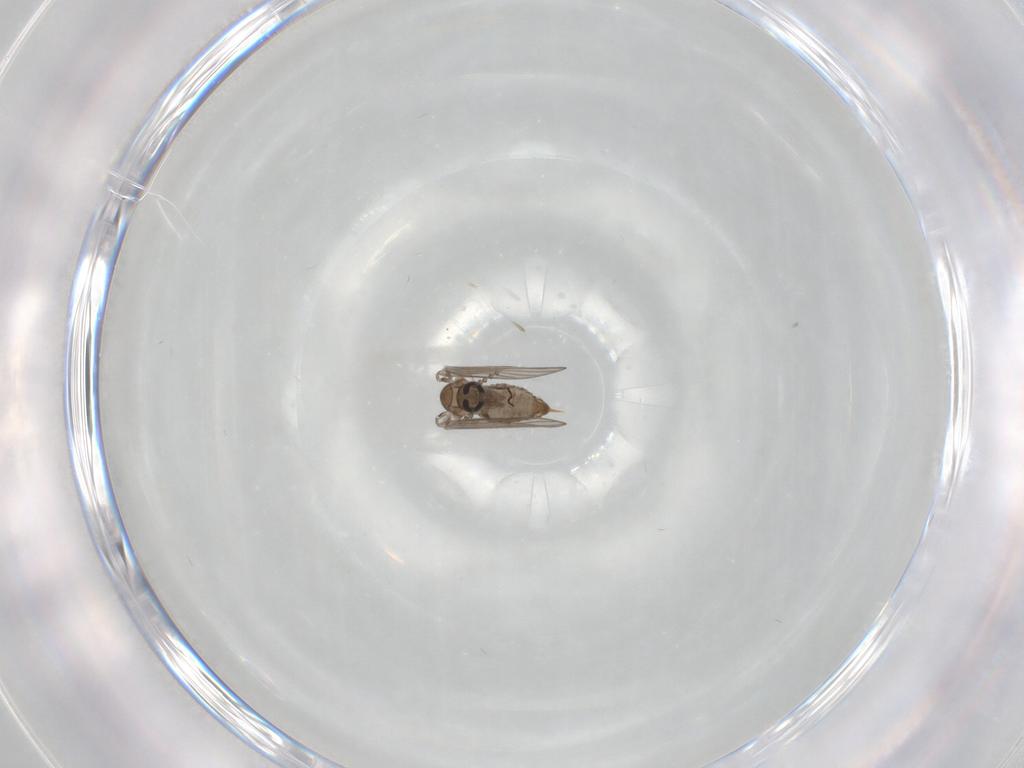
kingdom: Animalia
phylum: Arthropoda
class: Insecta
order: Diptera
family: Psychodidae
